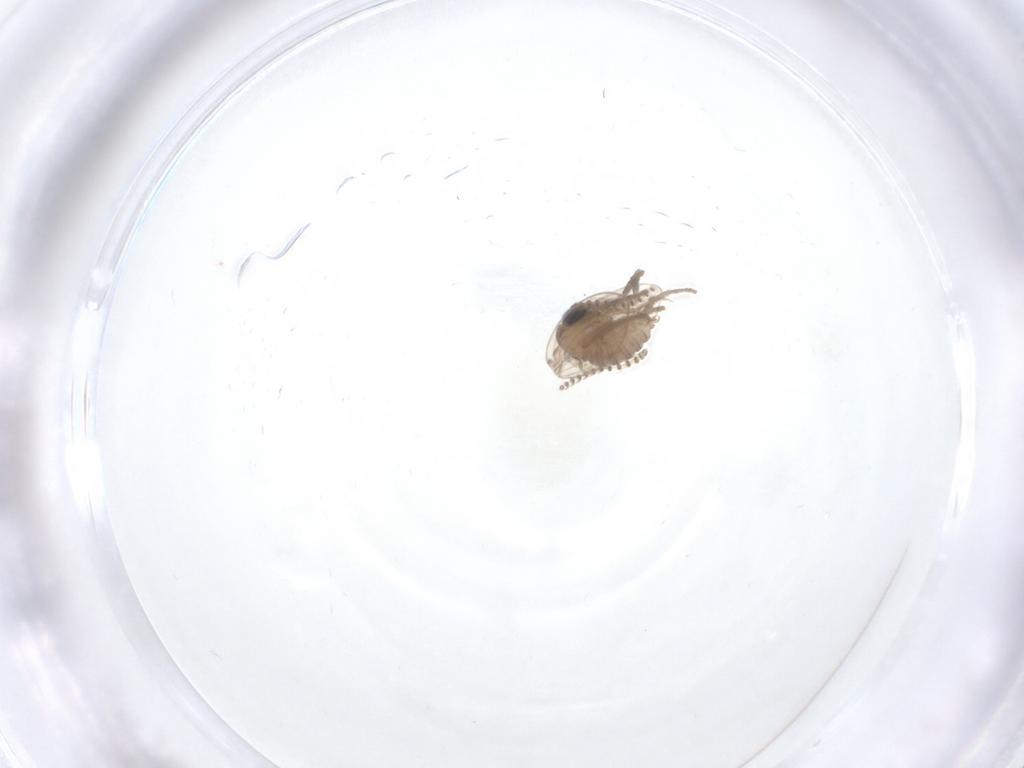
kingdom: Animalia
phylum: Arthropoda
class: Insecta
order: Diptera
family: Psychodidae
